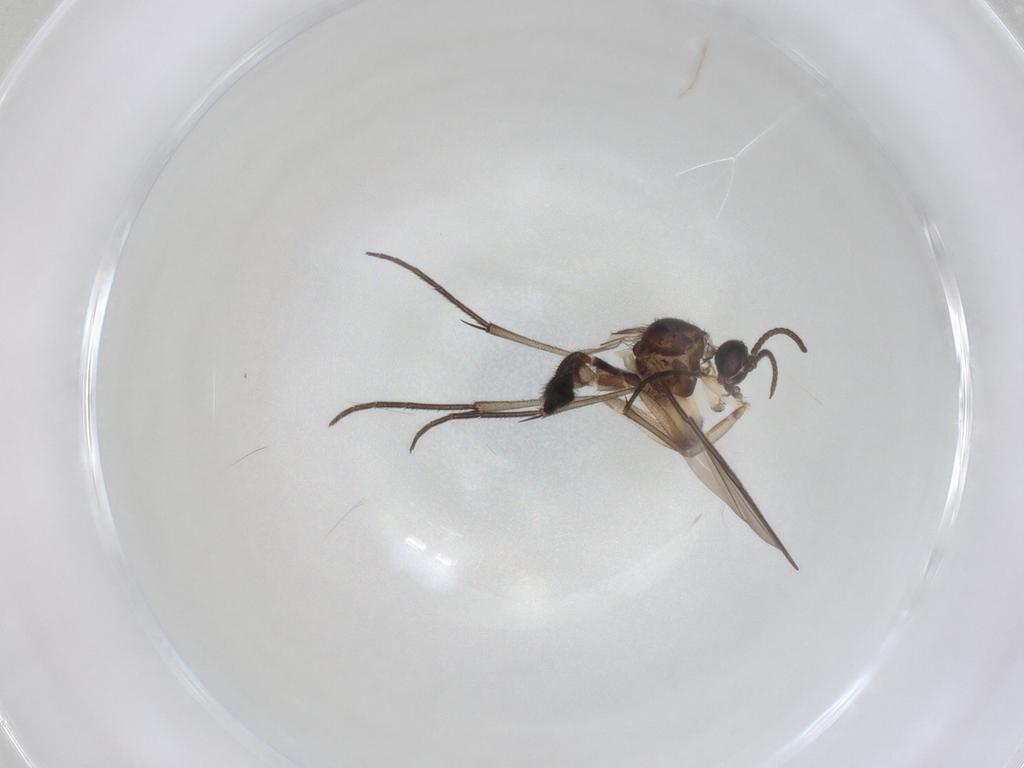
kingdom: Animalia
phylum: Arthropoda
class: Insecta
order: Diptera
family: Keroplatidae
